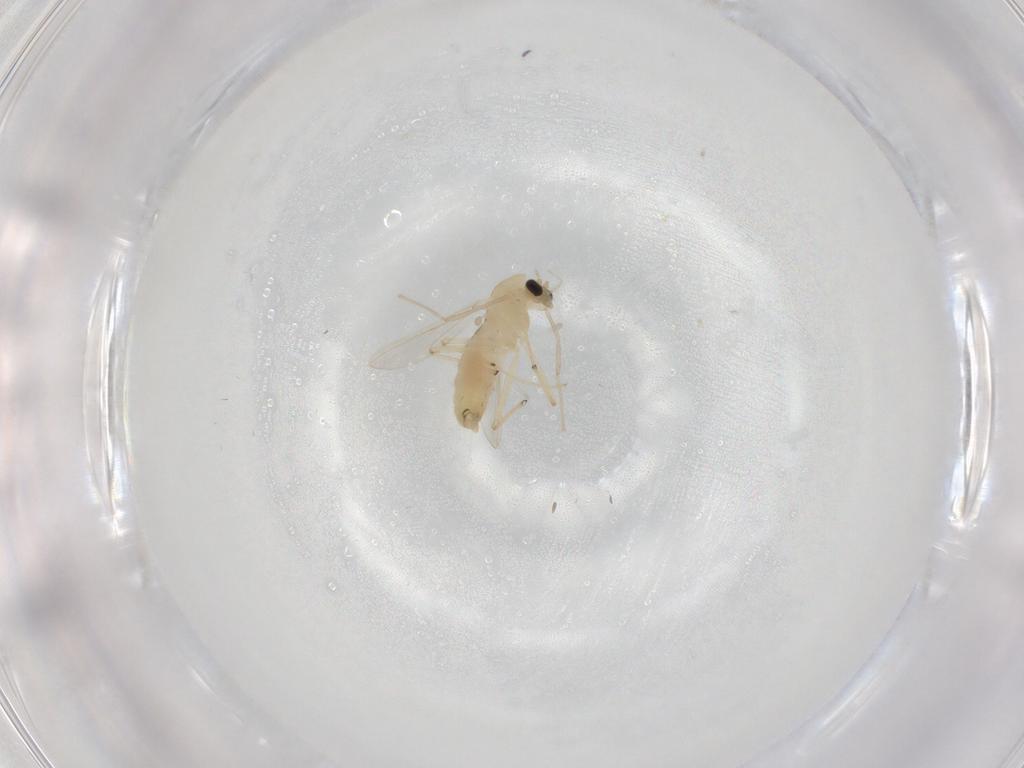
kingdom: Animalia
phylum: Arthropoda
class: Insecta
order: Diptera
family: Chironomidae
